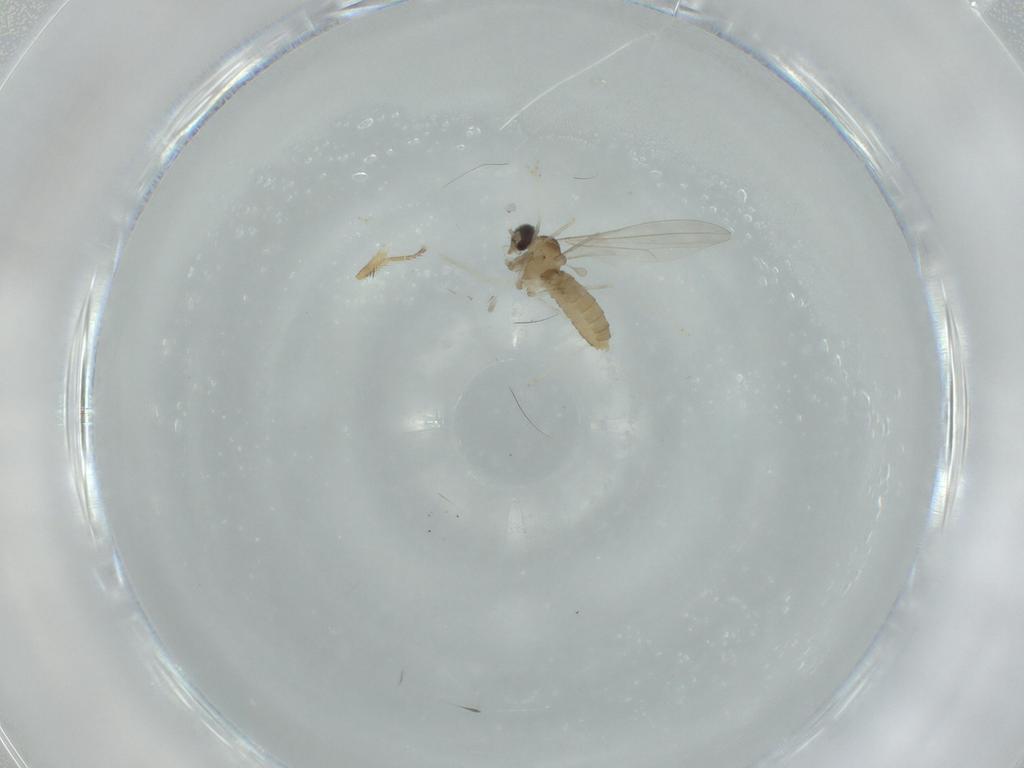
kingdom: Animalia
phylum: Arthropoda
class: Insecta
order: Diptera
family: Cecidomyiidae
